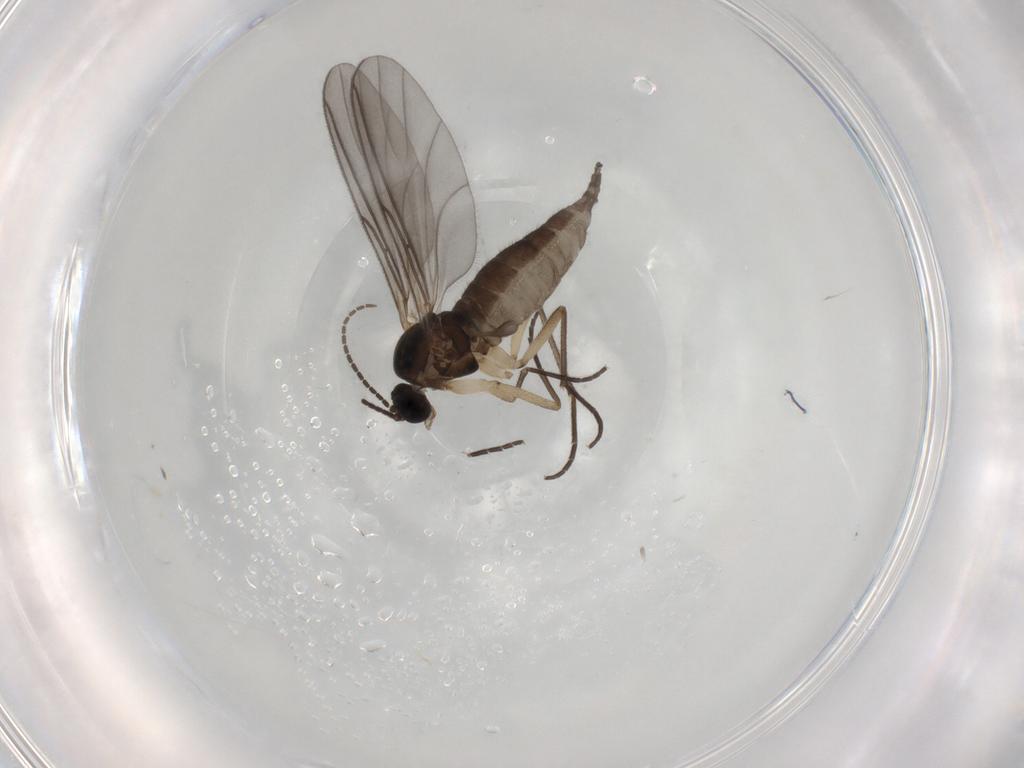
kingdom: Animalia
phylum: Arthropoda
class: Insecta
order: Diptera
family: Sciaridae
